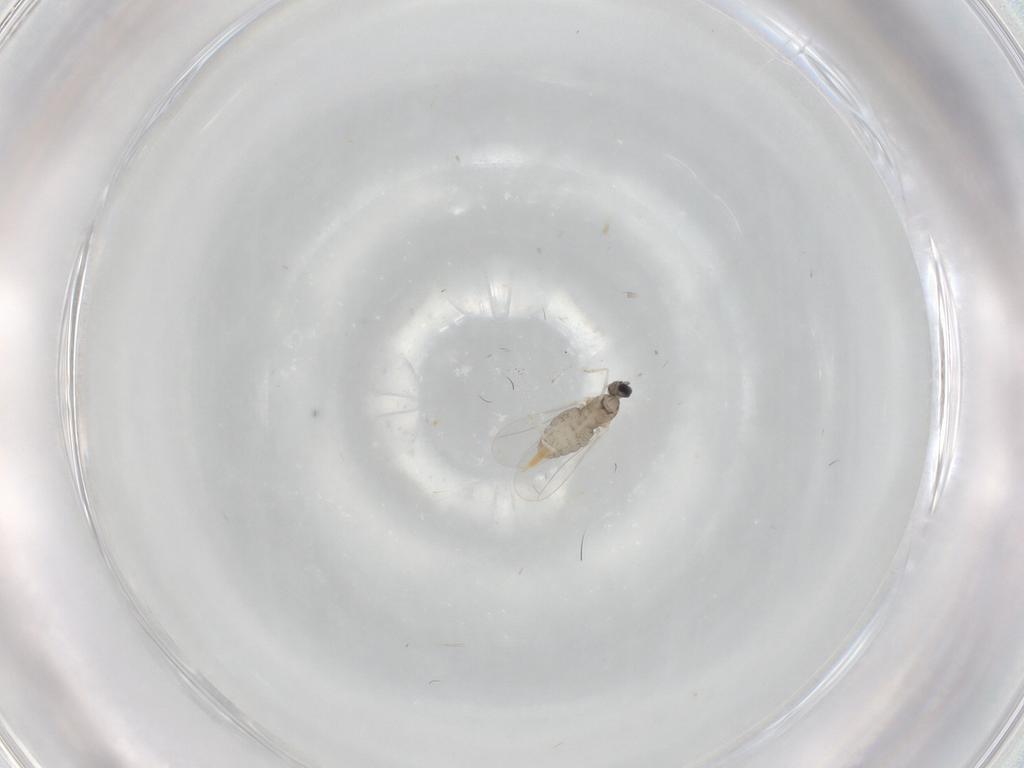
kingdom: Animalia
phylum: Arthropoda
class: Insecta
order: Diptera
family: Cecidomyiidae
